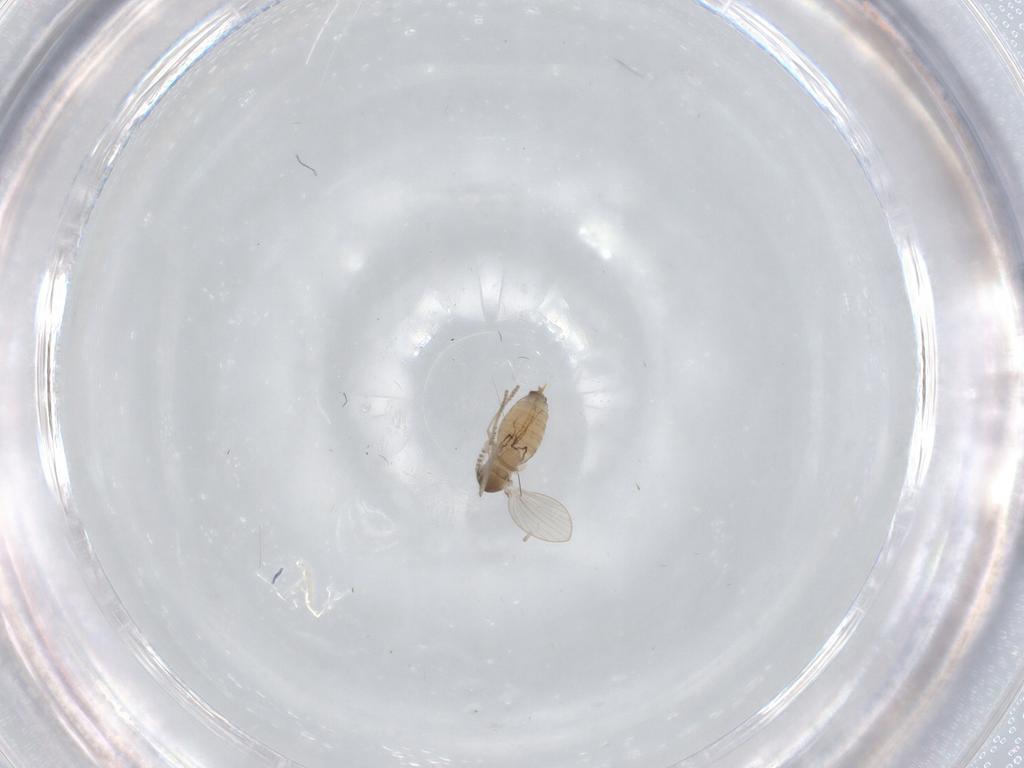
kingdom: Animalia
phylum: Arthropoda
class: Insecta
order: Diptera
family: Psychodidae
